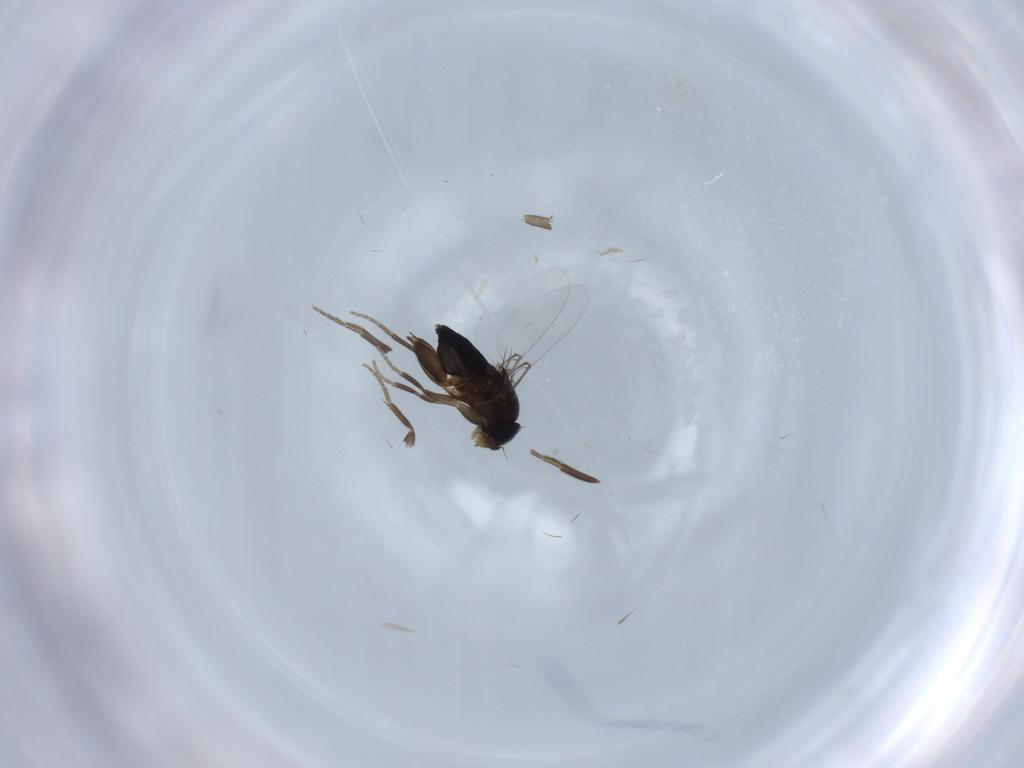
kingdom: Animalia
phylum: Arthropoda
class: Insecta
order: Diptera
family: Phoridae
